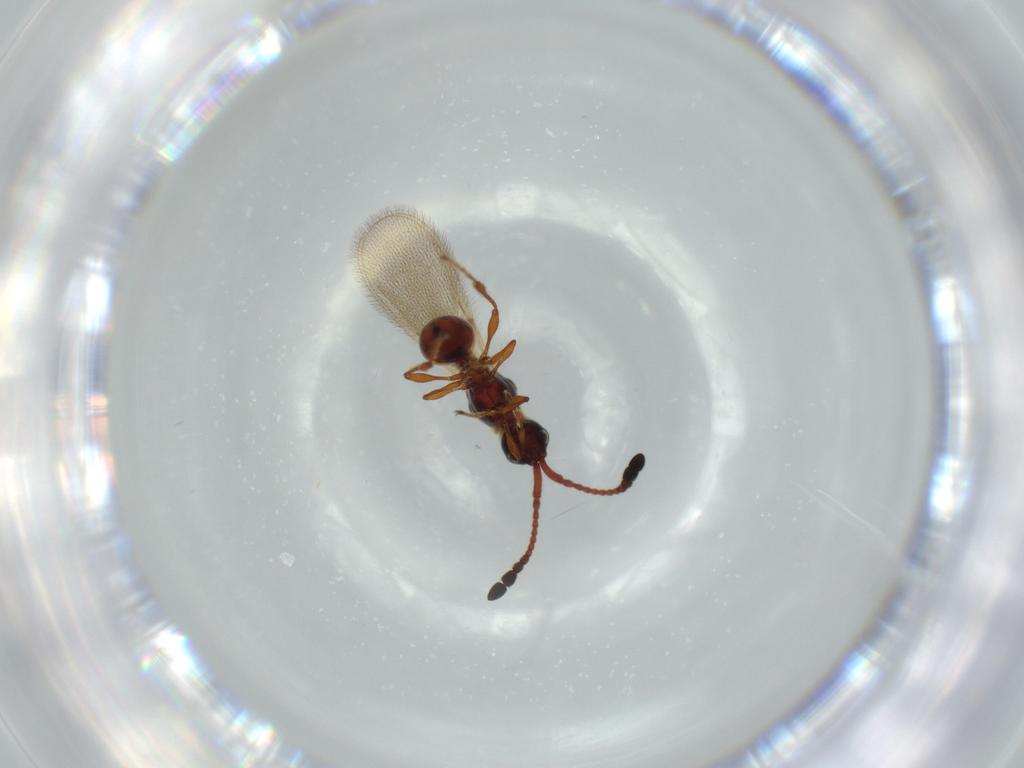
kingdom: Animalia
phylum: Arthropoda
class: Insecta
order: Hymenoptera
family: Diapriidae
